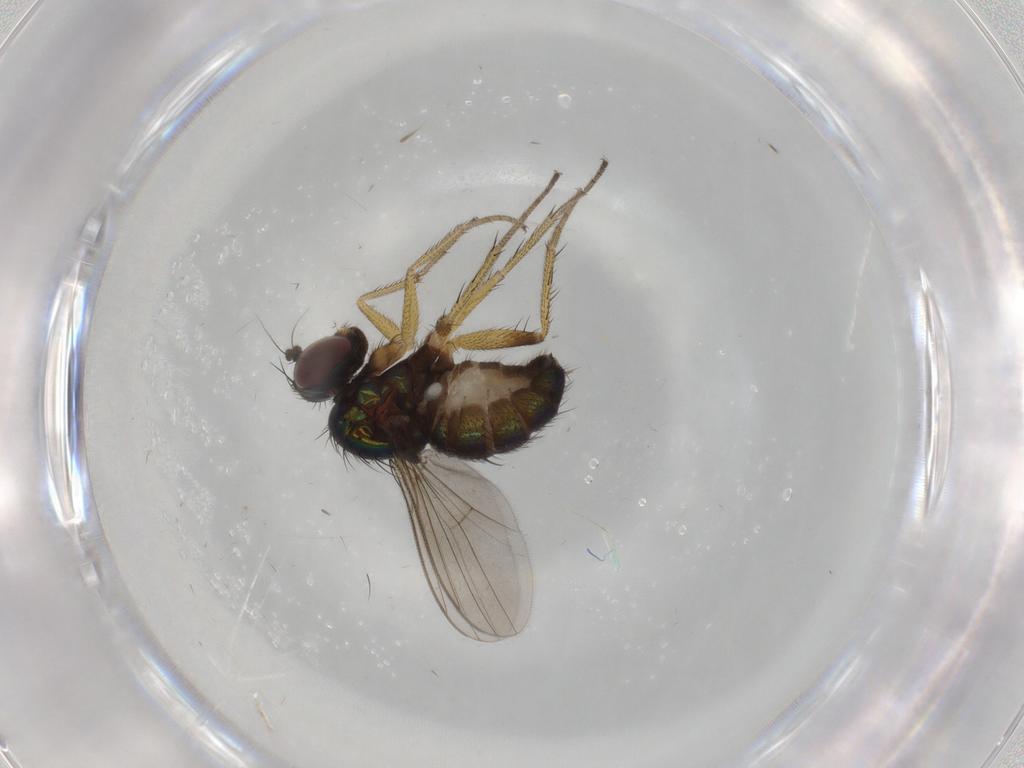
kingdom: Animalia
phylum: Arthropoda
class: Insecta
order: Diptera
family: Dolichopodidae
